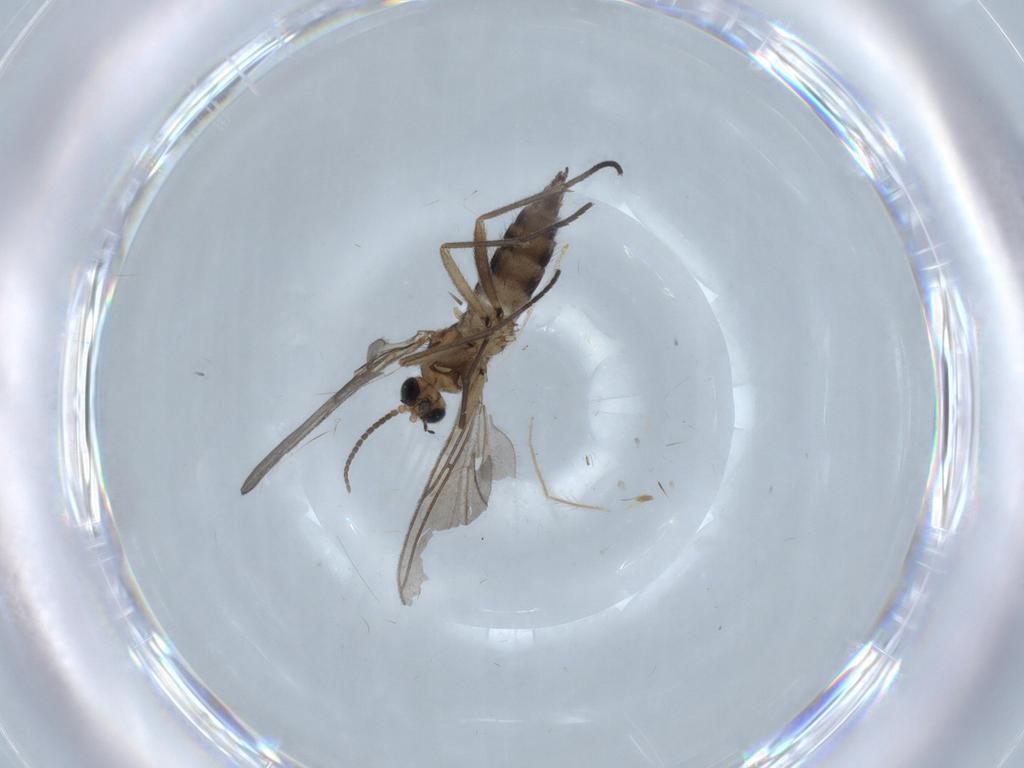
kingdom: Animalia
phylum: Arthropoda
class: Insecta
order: Diptera
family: Sciaridae
